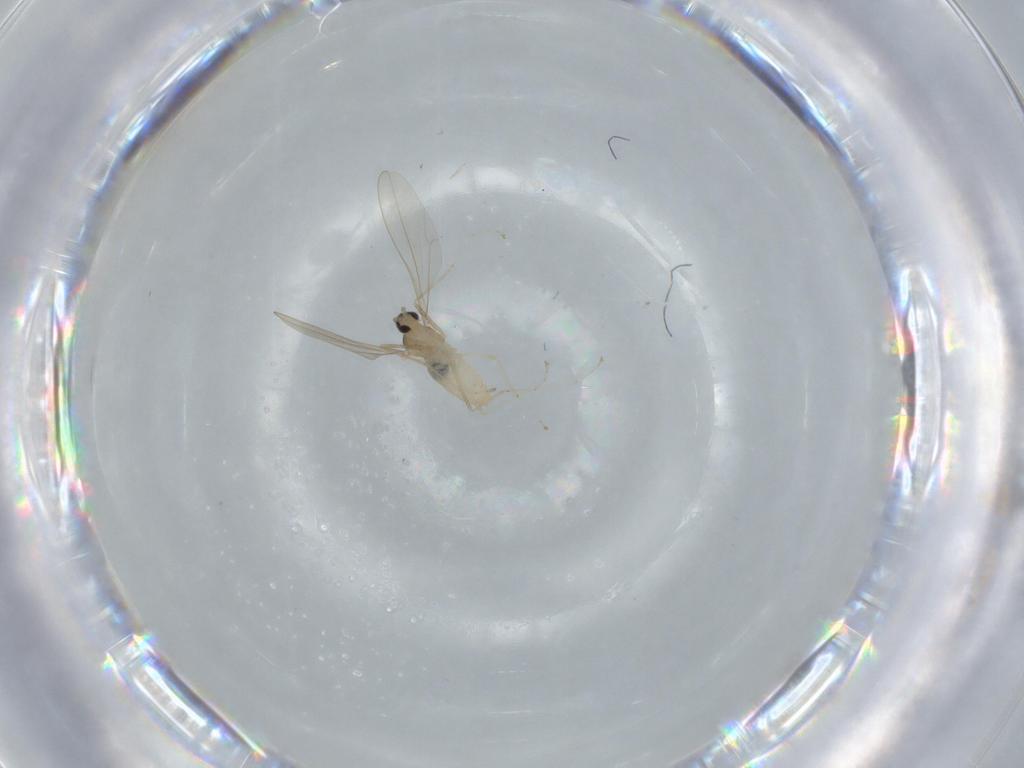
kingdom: Animalia
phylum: Arthropoda
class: Insecta
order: Diptera
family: Cecidomyiidae
